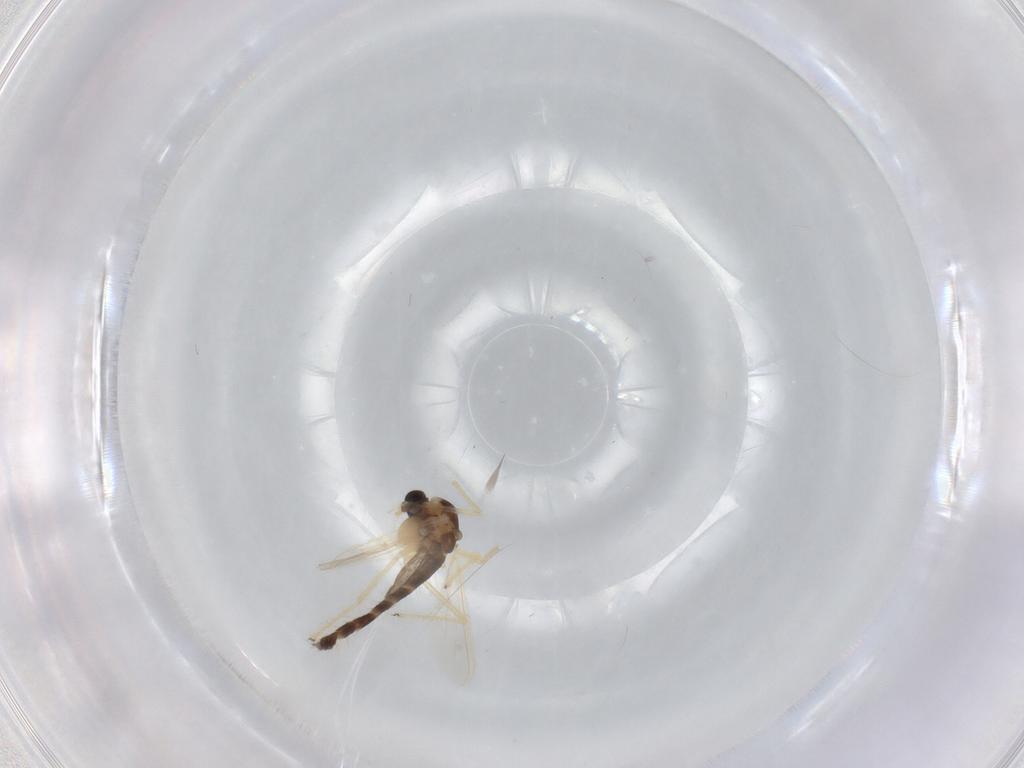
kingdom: Animalia
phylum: Arthropoda
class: Insecta
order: Diptera
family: Chironomidae
